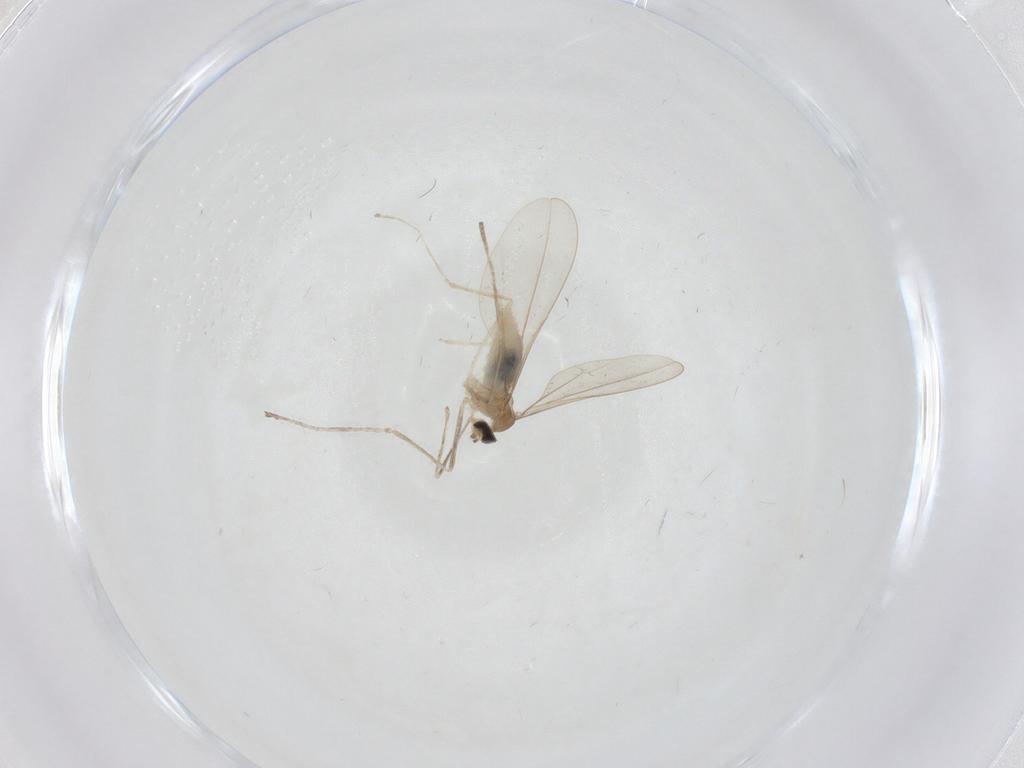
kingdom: Animalia
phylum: Arthropoda
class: Insecta
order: Diptera
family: Cecidomyiidae
